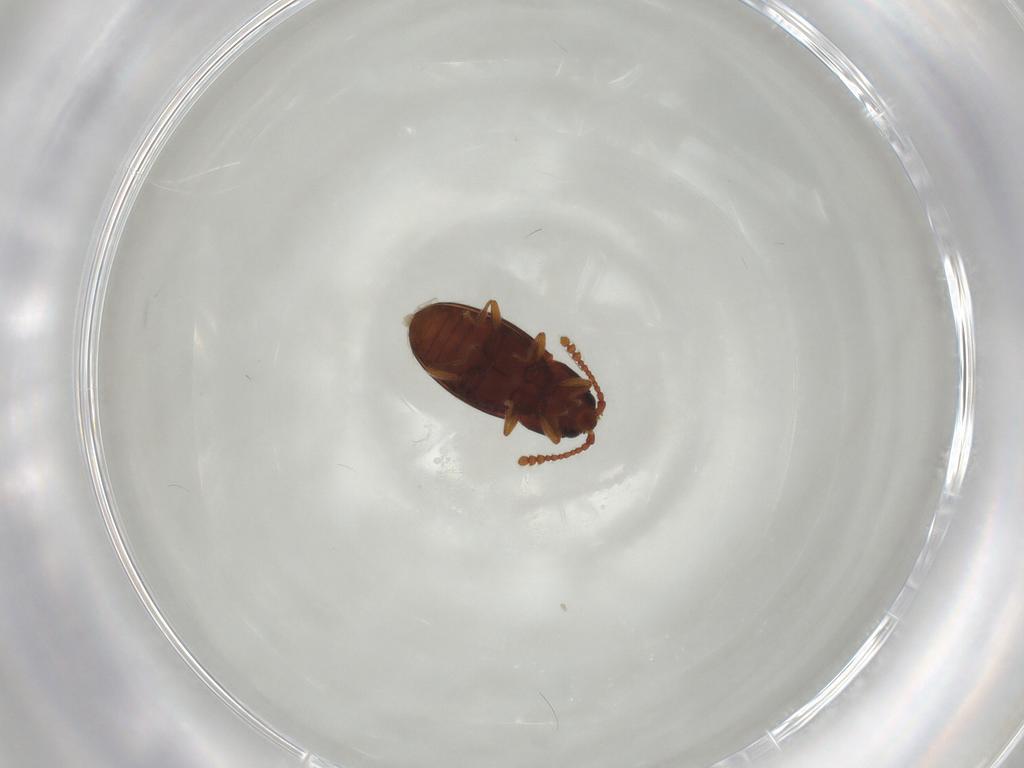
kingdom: Animalia
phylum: Arthropoda
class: Insecta
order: Coleoptera
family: Cryptophagidae
